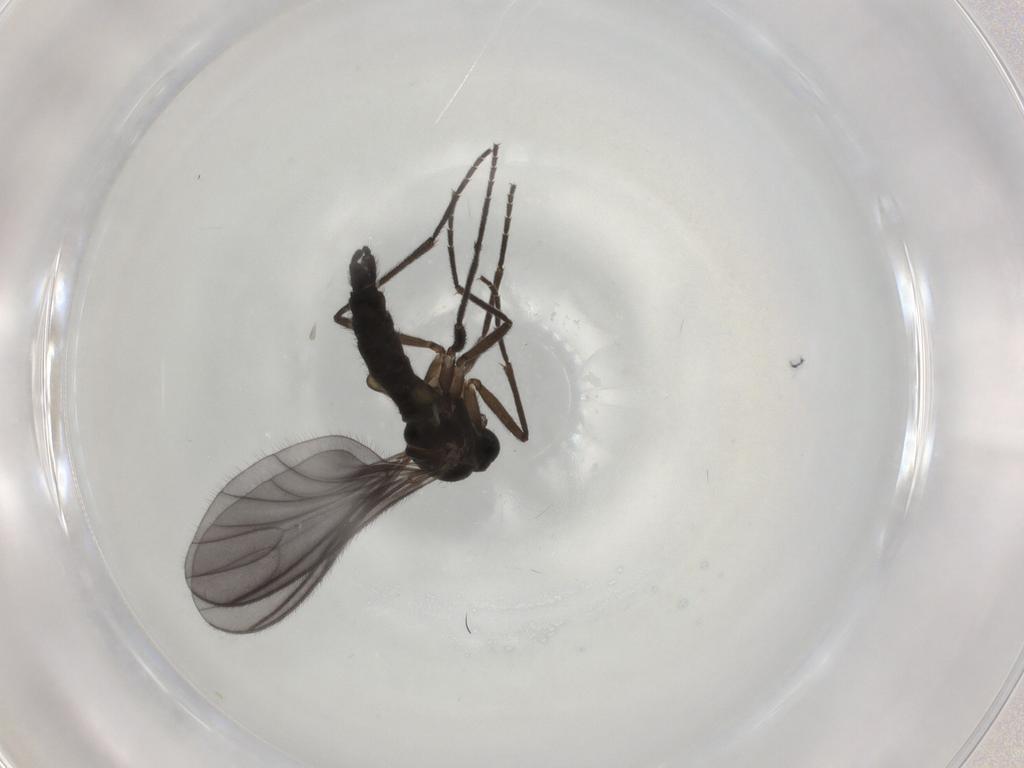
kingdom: Animalia
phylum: Arthropoda
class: Insecta
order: Diptera
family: Sciaridae
